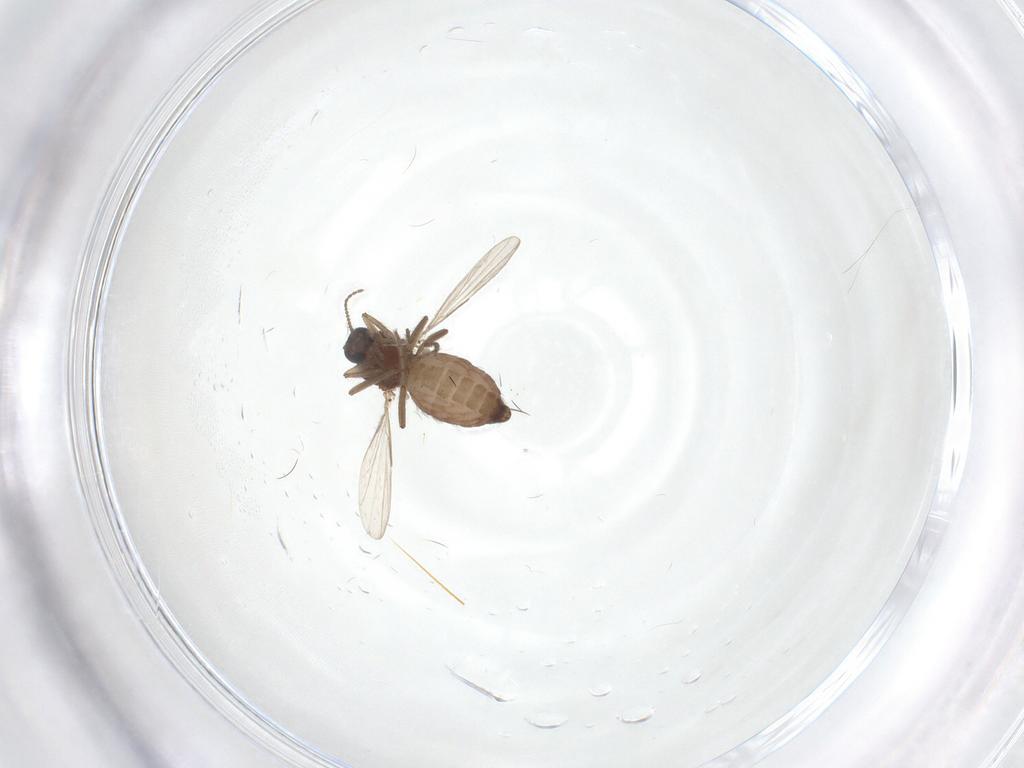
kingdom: Animalia
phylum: Arthropoda
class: Insecta
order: Diptera
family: Ceratopogonidae
